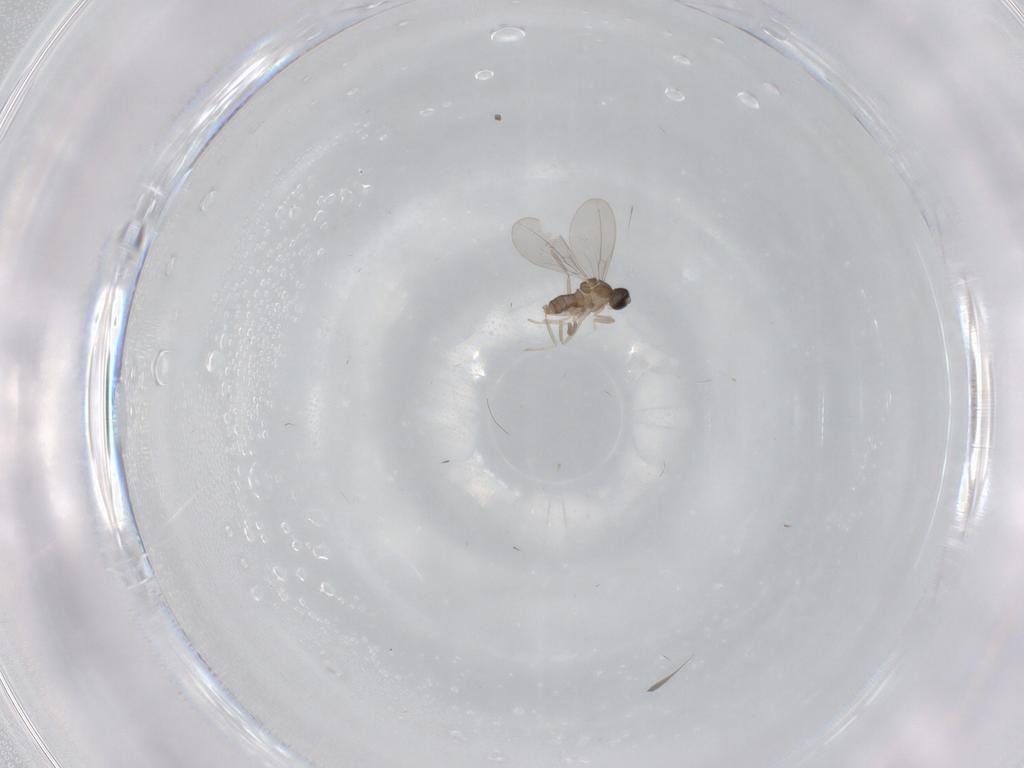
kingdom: Animalia
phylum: Arthropoda
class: Insecta
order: Diptera
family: Cecidomyiidae
